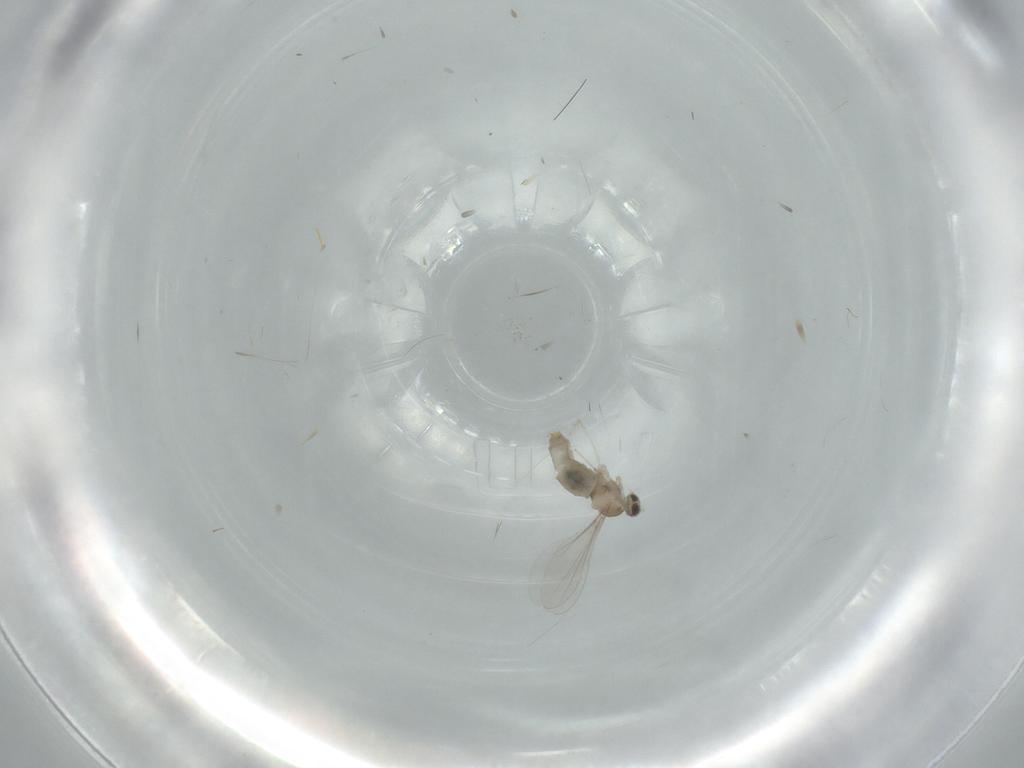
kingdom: Animalia
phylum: Arthropoda
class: Insecta
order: Diptera
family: Cecidomyiidae
